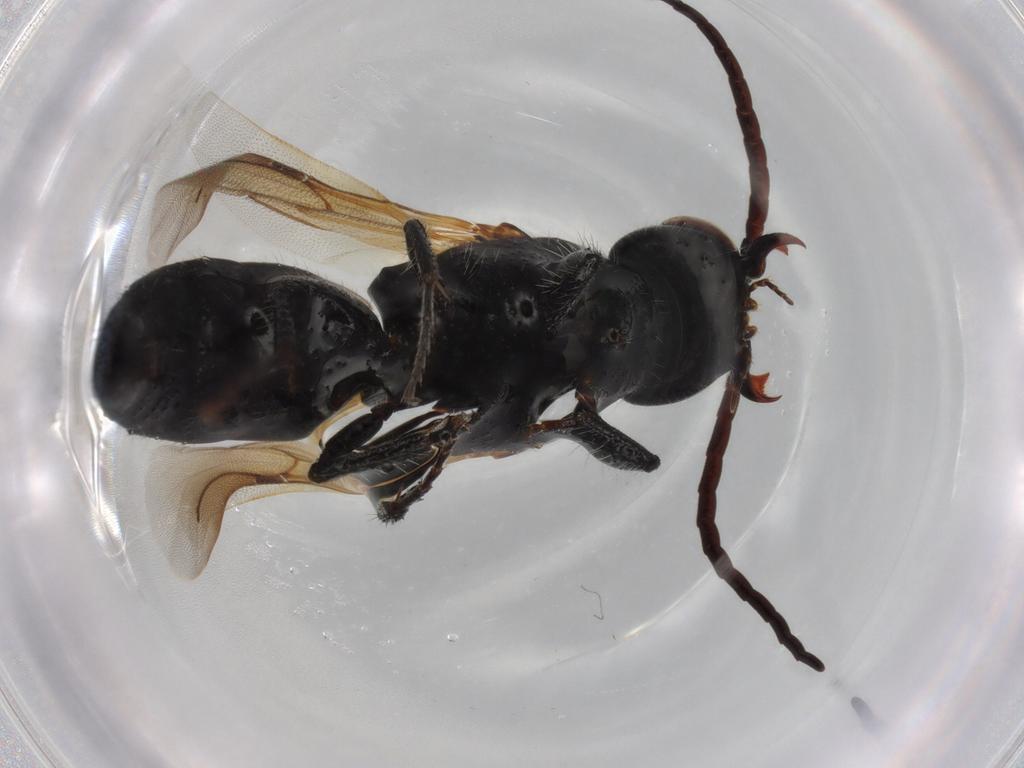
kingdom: Animalia
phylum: Arthropoda
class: Insecta
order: Hymenoptera
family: Bethylidae
